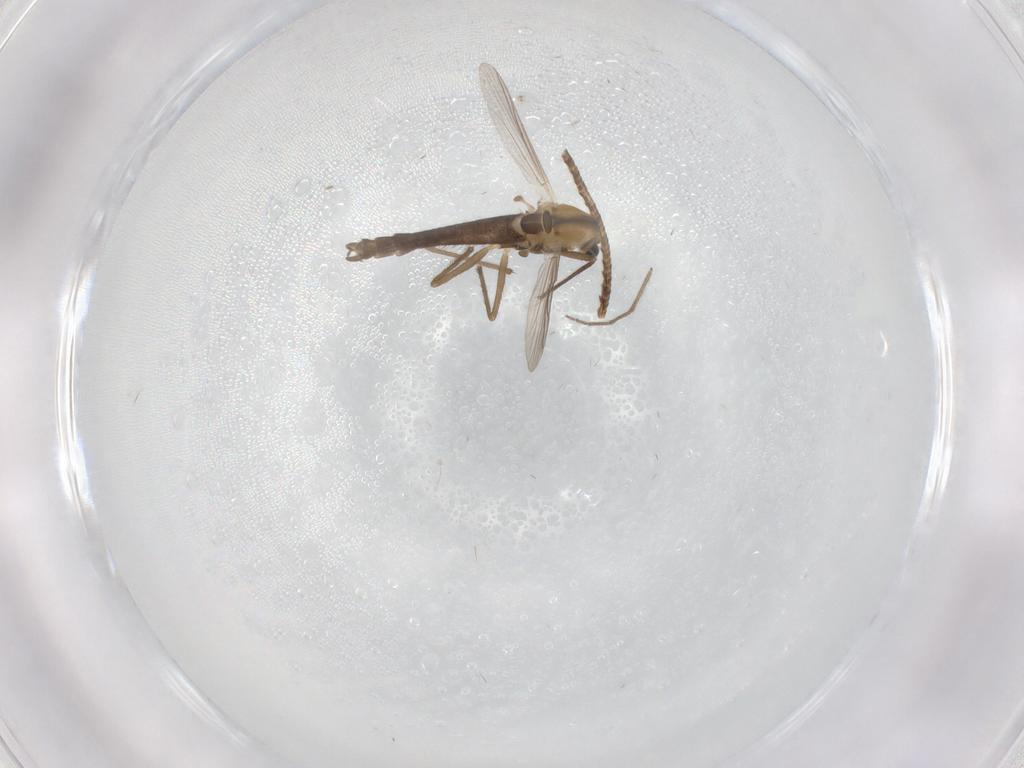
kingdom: Animalia
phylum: Arthropoda
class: Insecta
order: Diptera
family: Chironomidae
